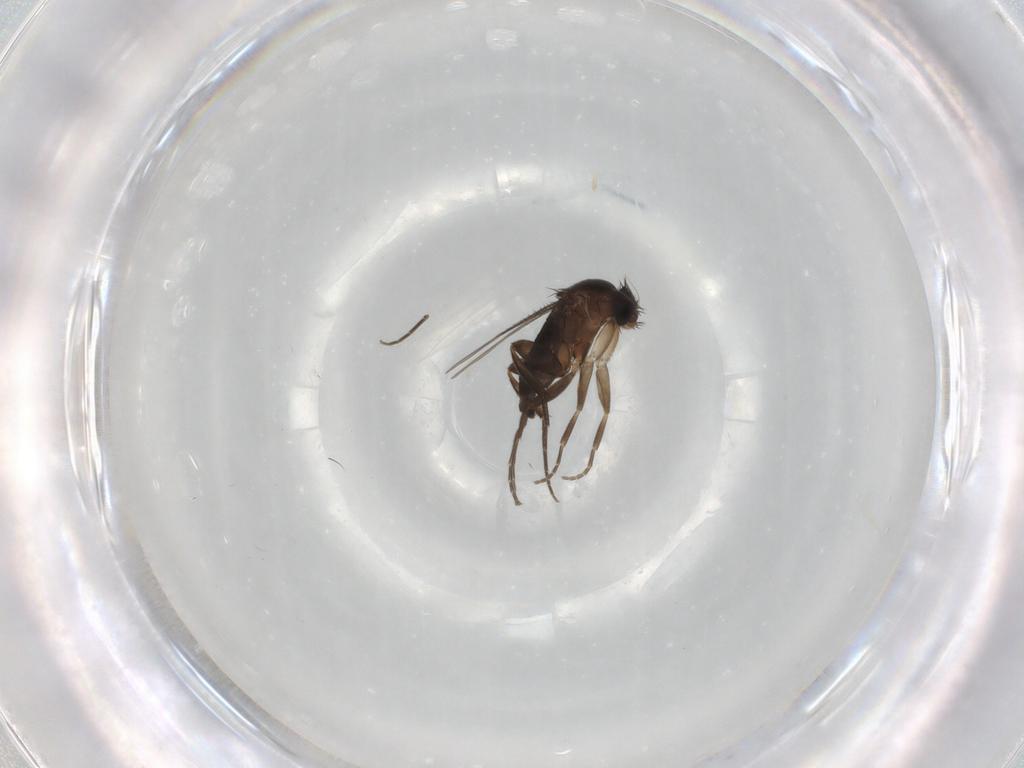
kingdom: Animalia
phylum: Arthropoda
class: Insecta
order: Diptera
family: Phoridae
